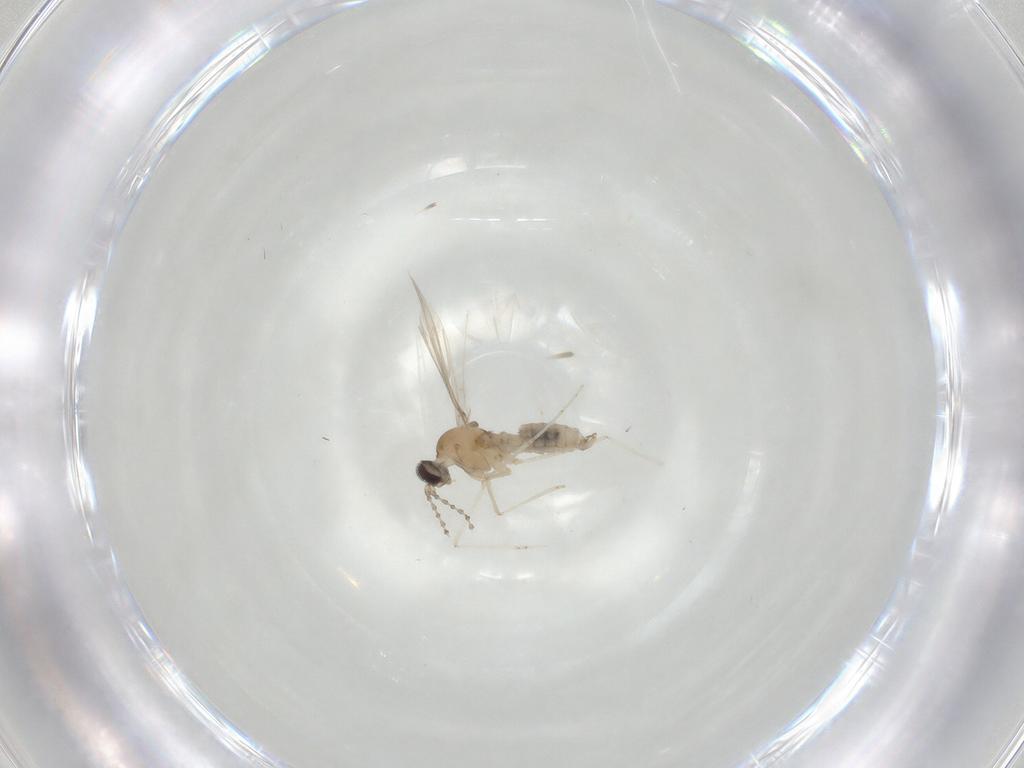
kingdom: Animalia
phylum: Arthropoda
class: Insecta
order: Diptera
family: Cecidomyiidae
